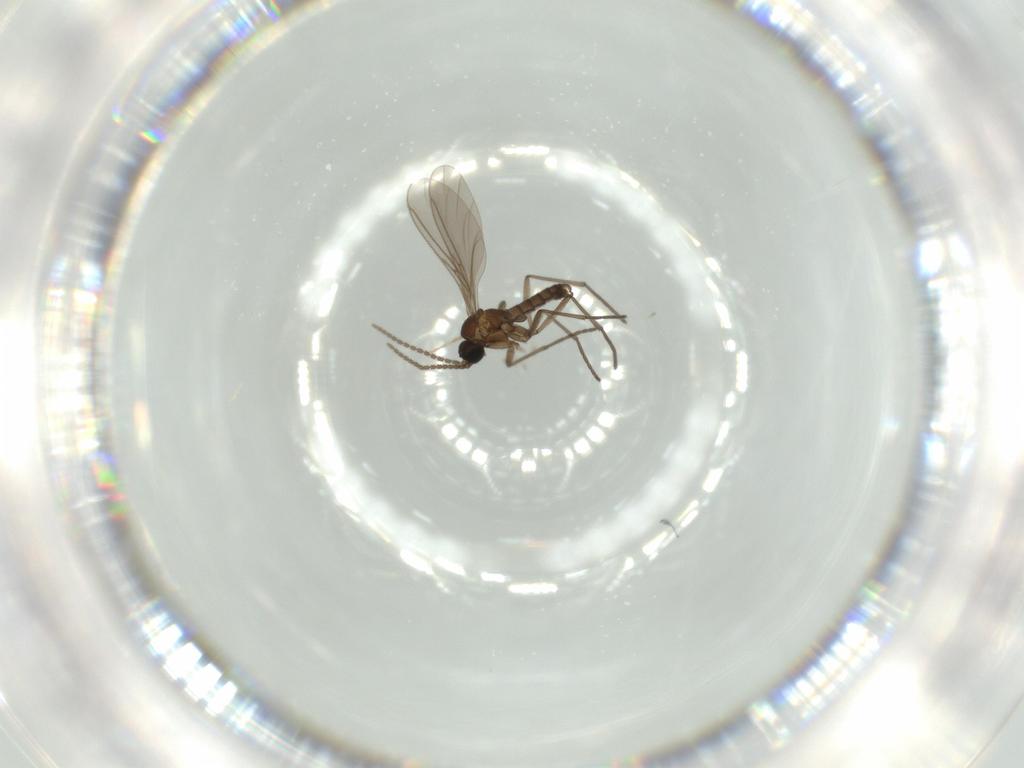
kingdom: Animalia
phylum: Arthropoda
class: Insecta
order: Diptera
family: Sciaridae
